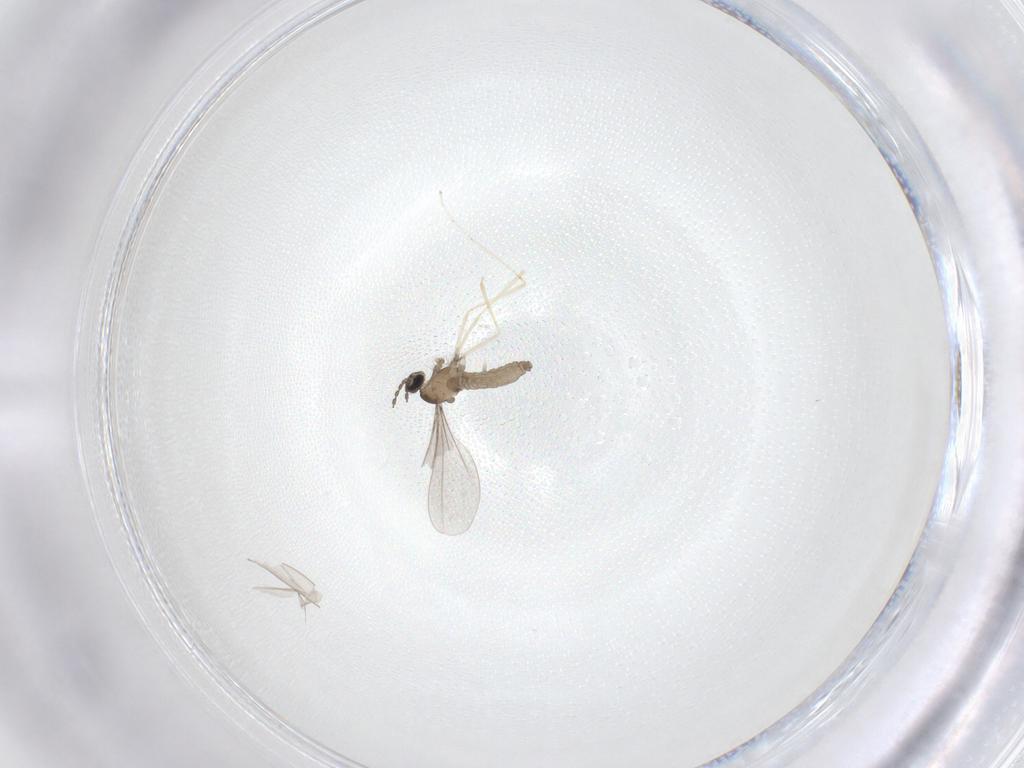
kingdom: Animalia
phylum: Arthropoda
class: Insecta
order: Diptera
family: Cecidomyiidae
